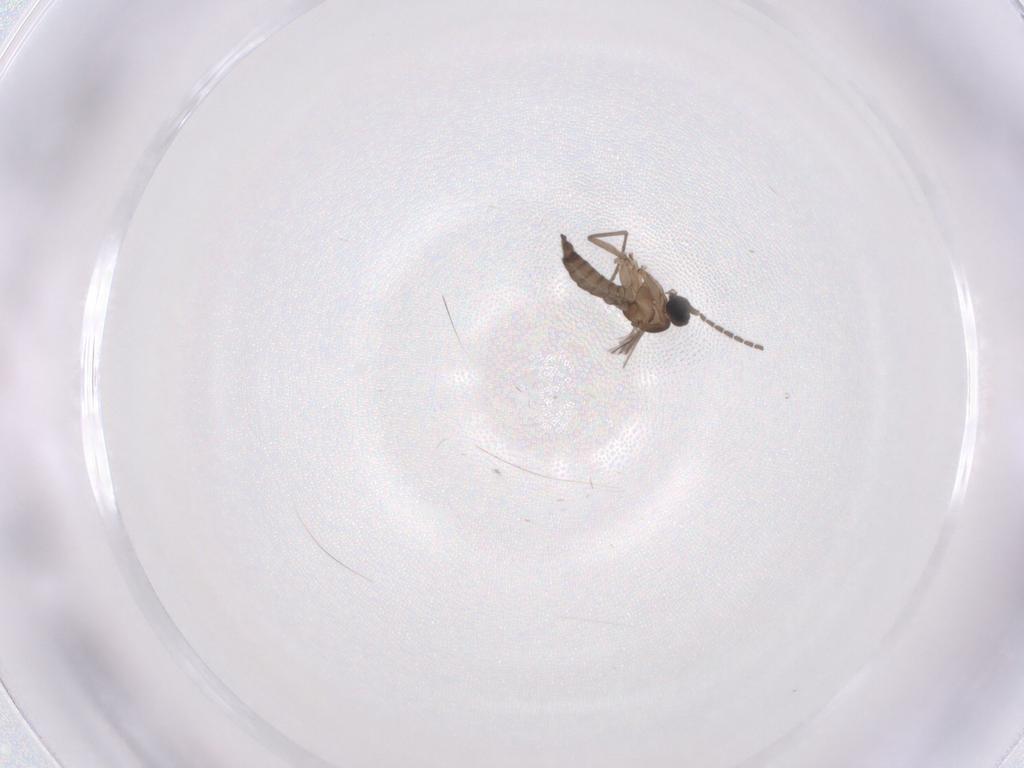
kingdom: Animalia
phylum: Arthropoda
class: Insecta
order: Diptera
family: Sciaridae
